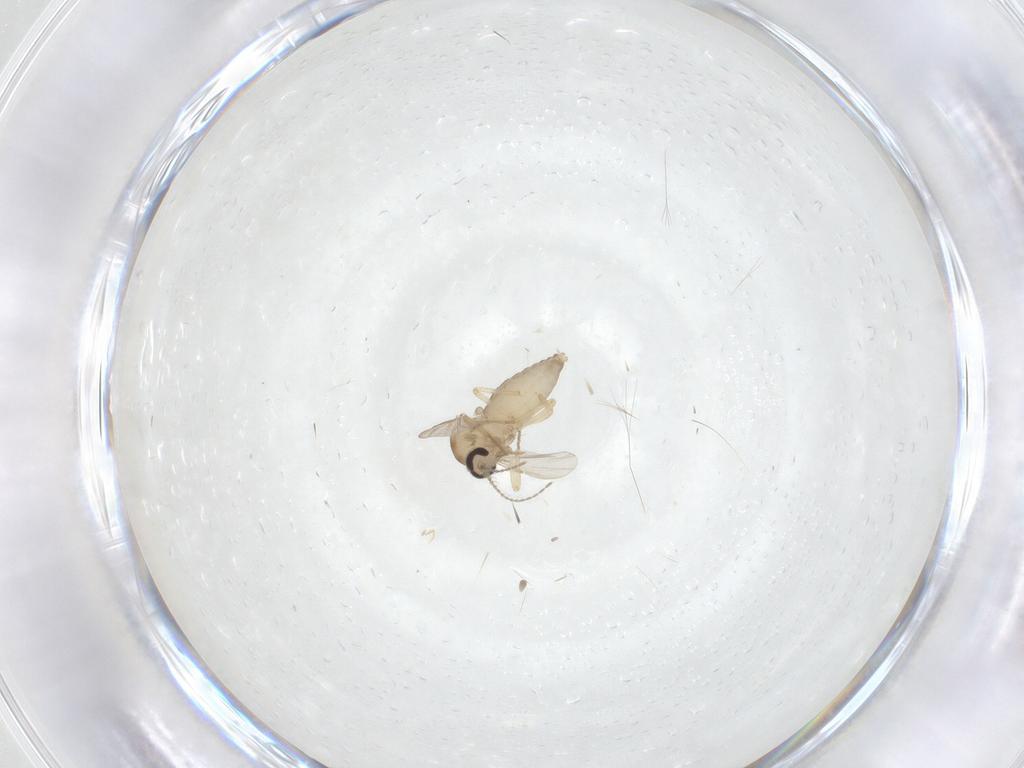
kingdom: Animalia
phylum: Arthropoda
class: Insecta
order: Diptera
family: Ceratopogonidae
